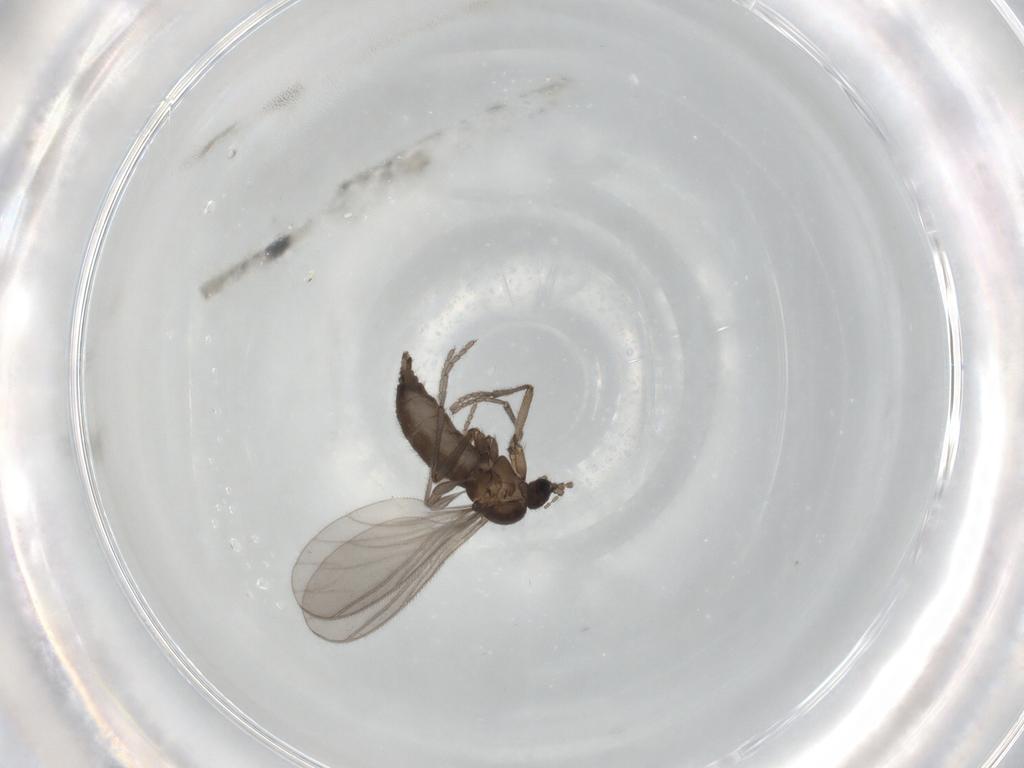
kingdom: Animalia
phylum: Arthropoda
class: Insecta
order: Diptera
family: Sciaridae
